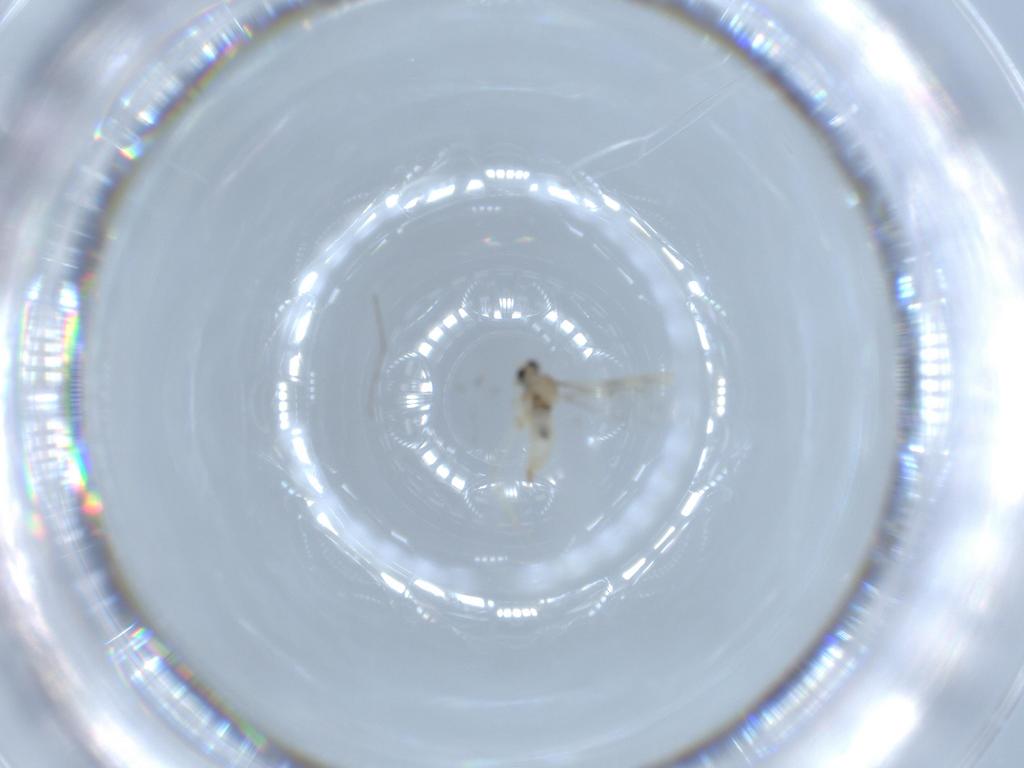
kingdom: Animalia
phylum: Arthropoda
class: Insecta
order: Diptera
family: Cecidomyiidae
